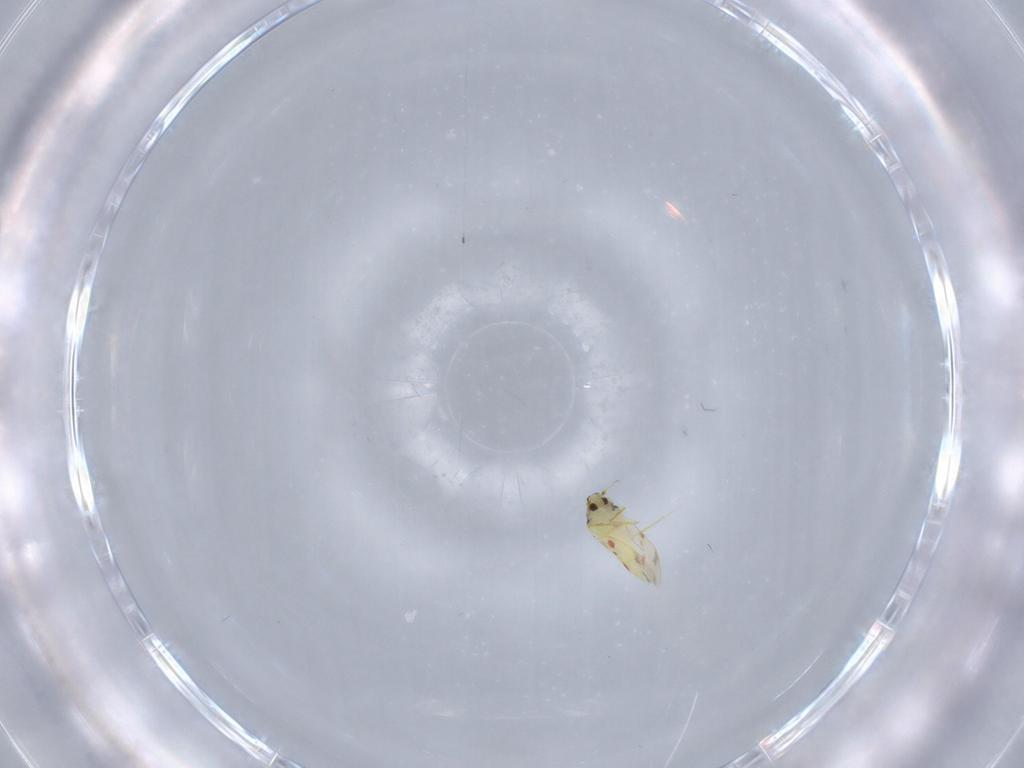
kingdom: Animalia
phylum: Arthropoda
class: Insecta
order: Hemiptera
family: Aleyrodidae
